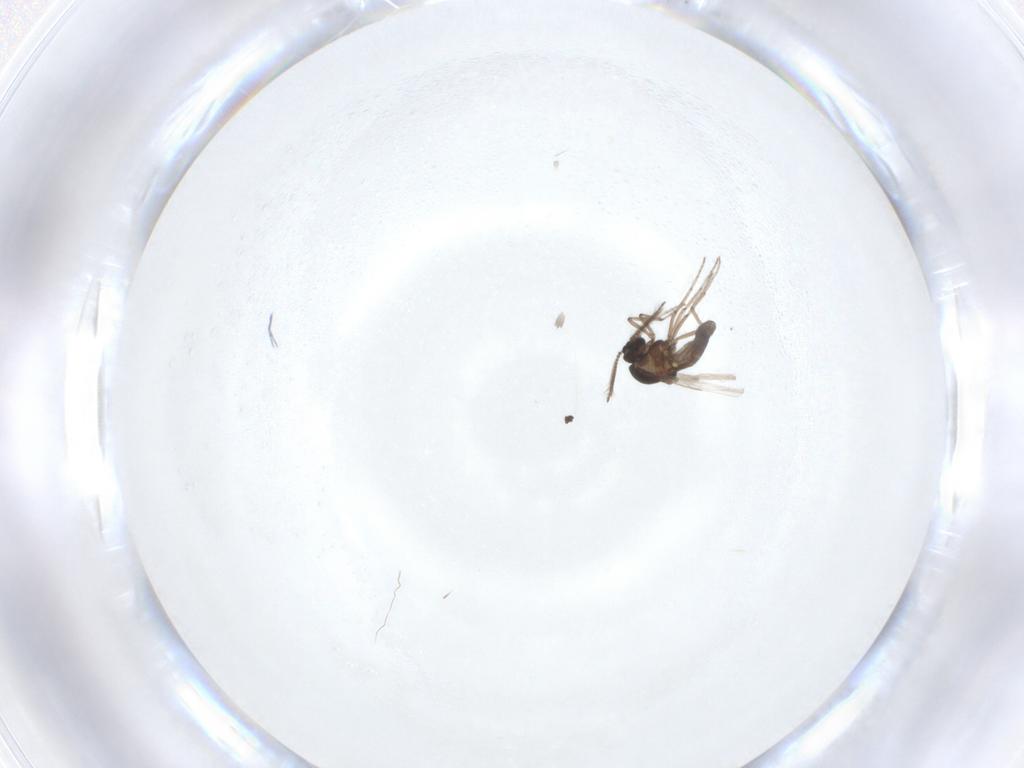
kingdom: Animalia
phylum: Arthropoda
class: Insecta
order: Diptera
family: Chironomidae
